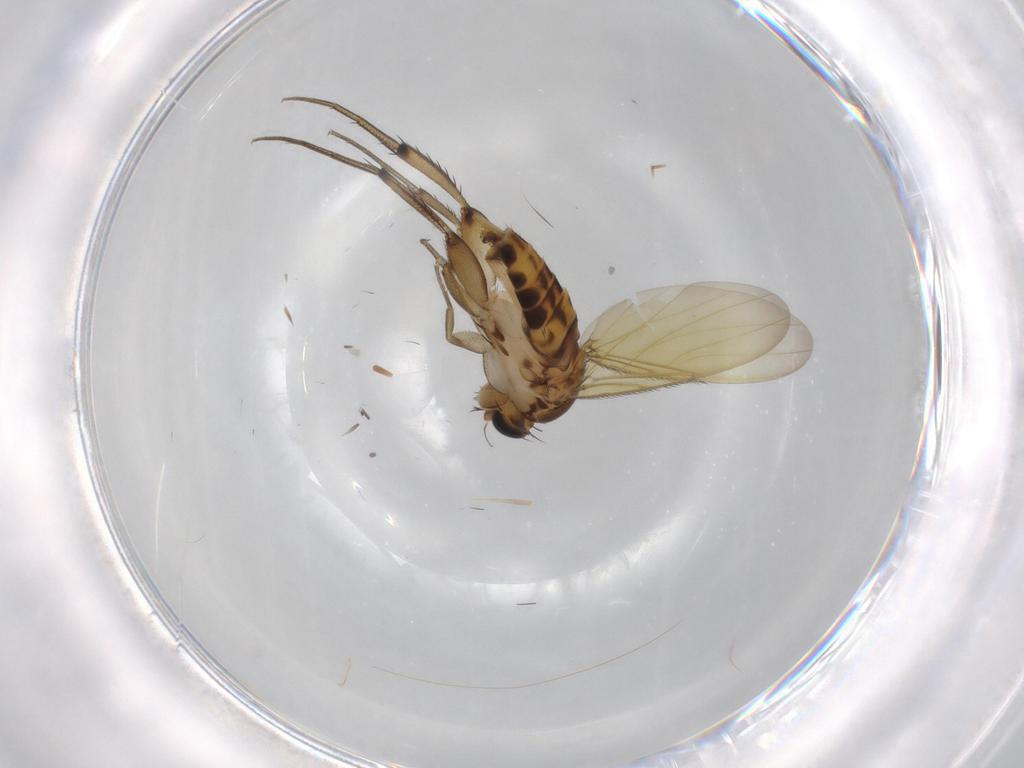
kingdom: Animalia
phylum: Arthropoda
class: Insecta
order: Diptera
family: Phoridae
